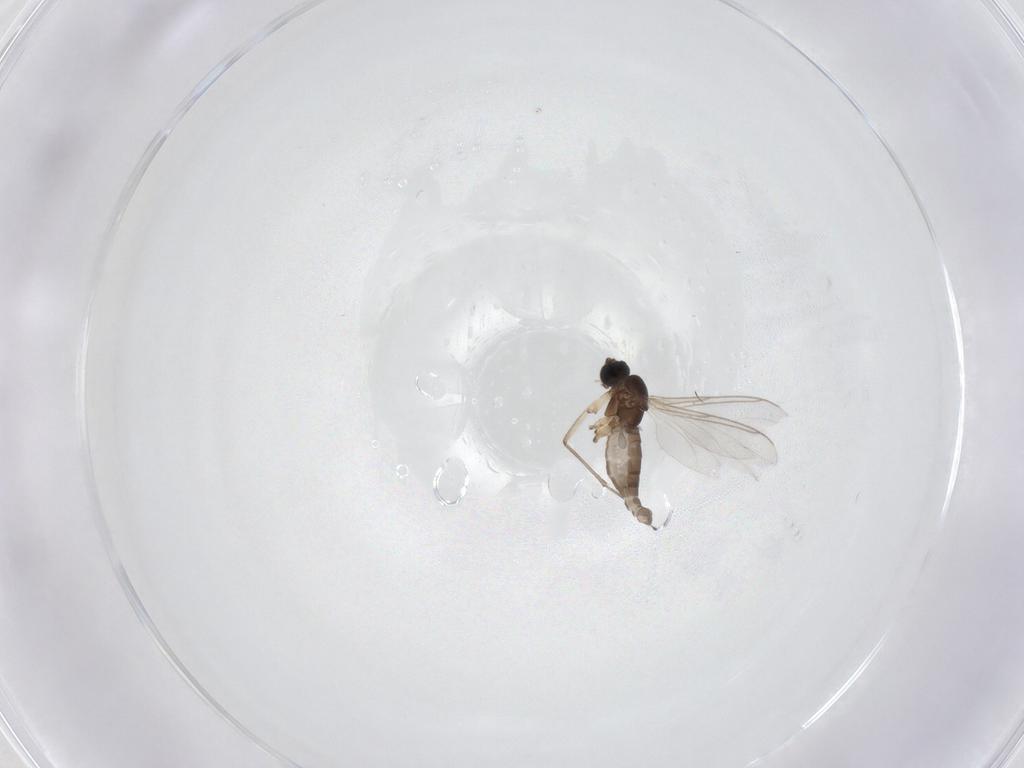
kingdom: Animalia
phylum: Arthropoda
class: Insecta
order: Diptera
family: Sciaridae
